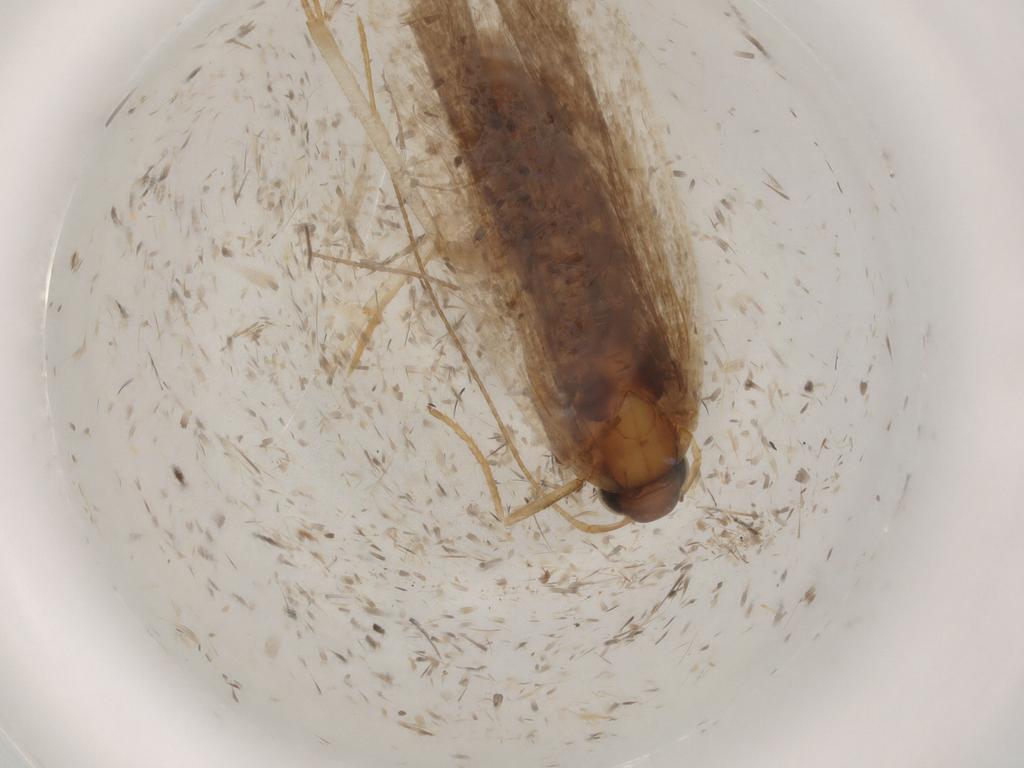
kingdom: Animalia
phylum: Arthropoda
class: Insecta
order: Lepidoptera
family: Gelechiidae
